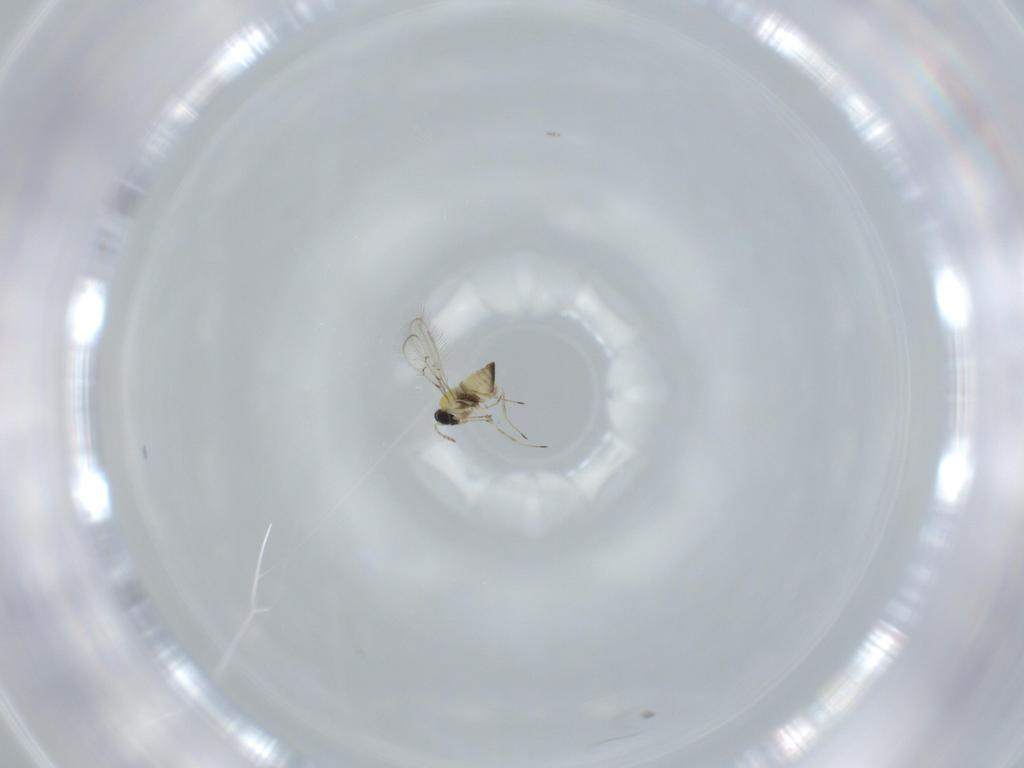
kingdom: Animalia
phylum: Arthropoda
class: Insecta
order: Hymenoptera
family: Trichogrammatidae
